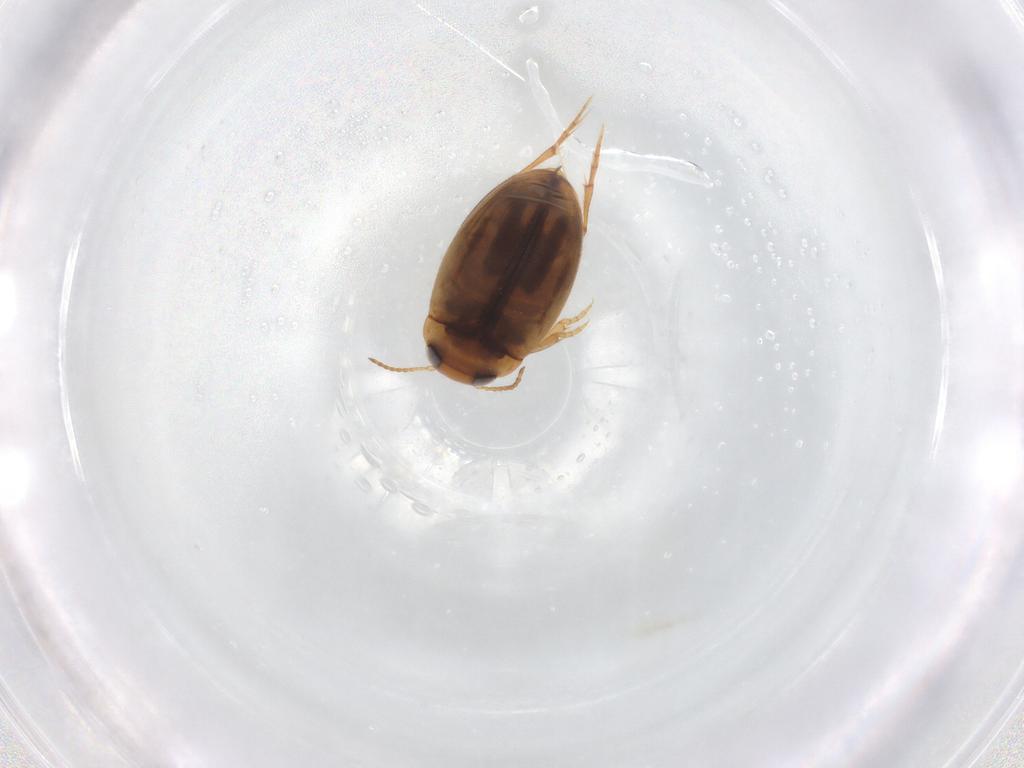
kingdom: Animalia
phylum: Arthropoda
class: Insecta
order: Coleoptera
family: Dytiscidae
